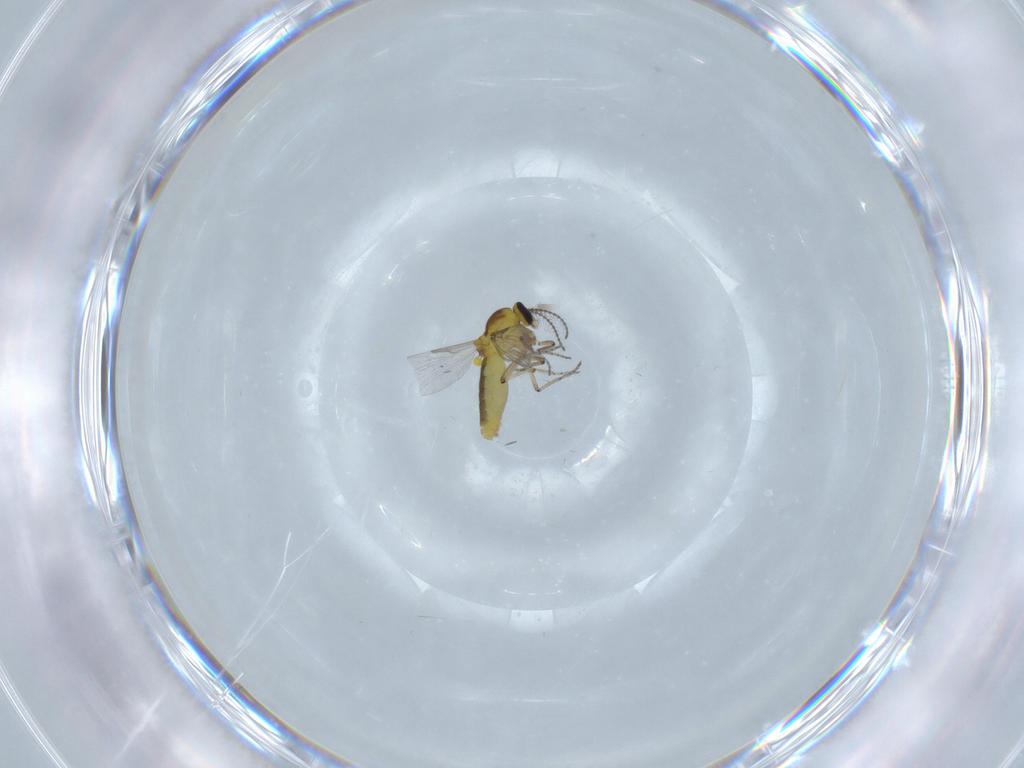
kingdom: Animalia
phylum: Arthropoda
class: Insecta
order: Diptera
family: Ceratopogonidae
